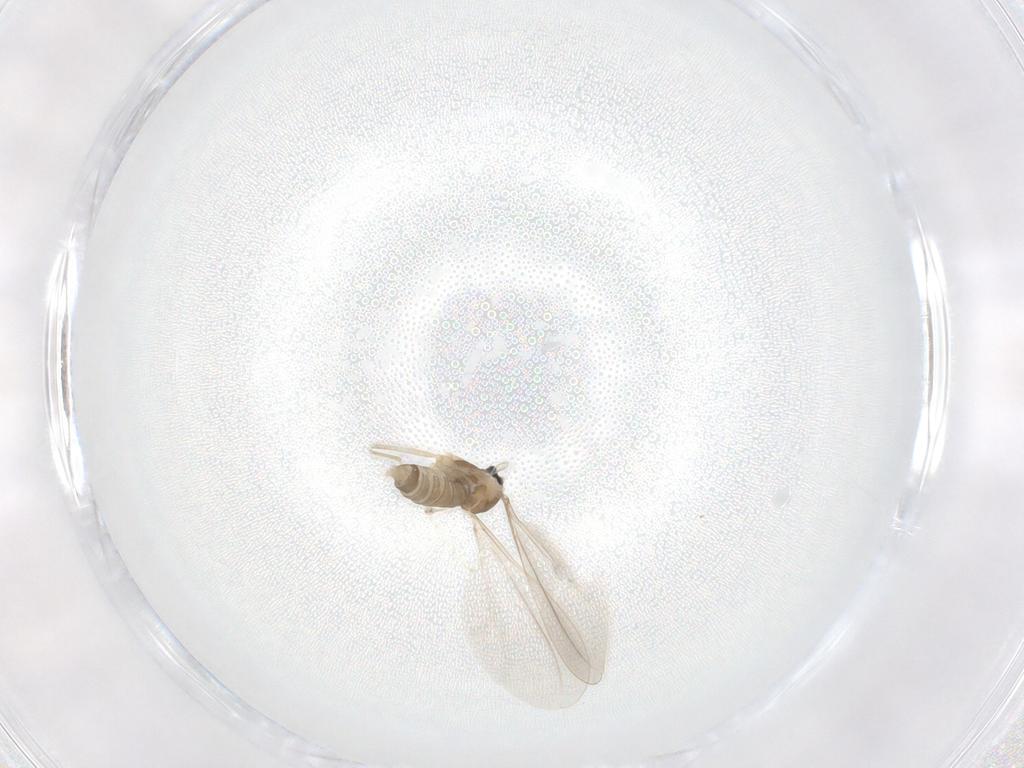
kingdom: Animalia
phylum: Arthropoda
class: Insecta
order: Diptera
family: Cecidomyiidae
